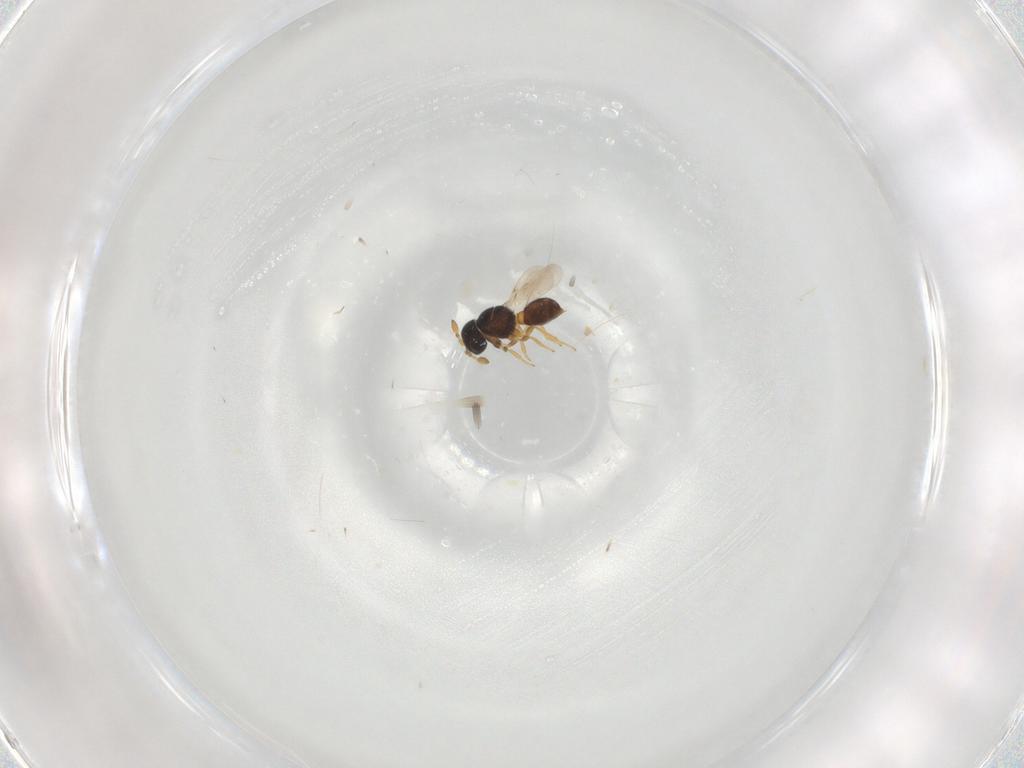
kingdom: Animalia
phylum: Arthropoda
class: Insecta
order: Hymenoptera
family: Scelionidae
